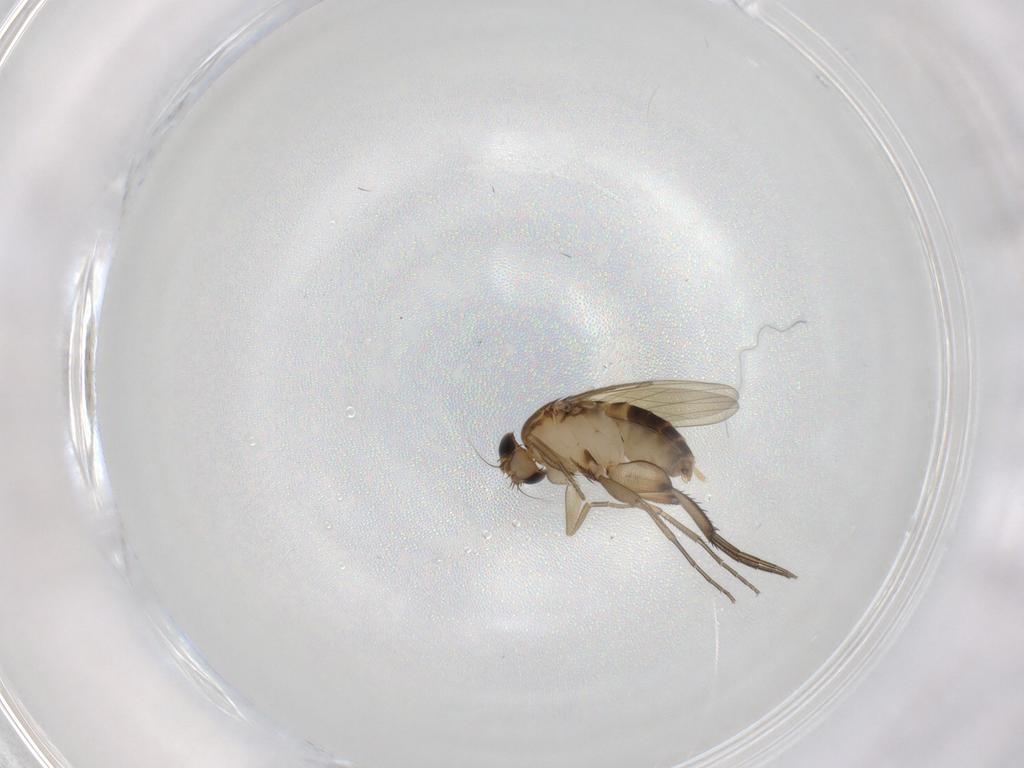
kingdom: Animalia
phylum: Arthropoda
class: Insecta
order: Diptera
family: Phoridae
